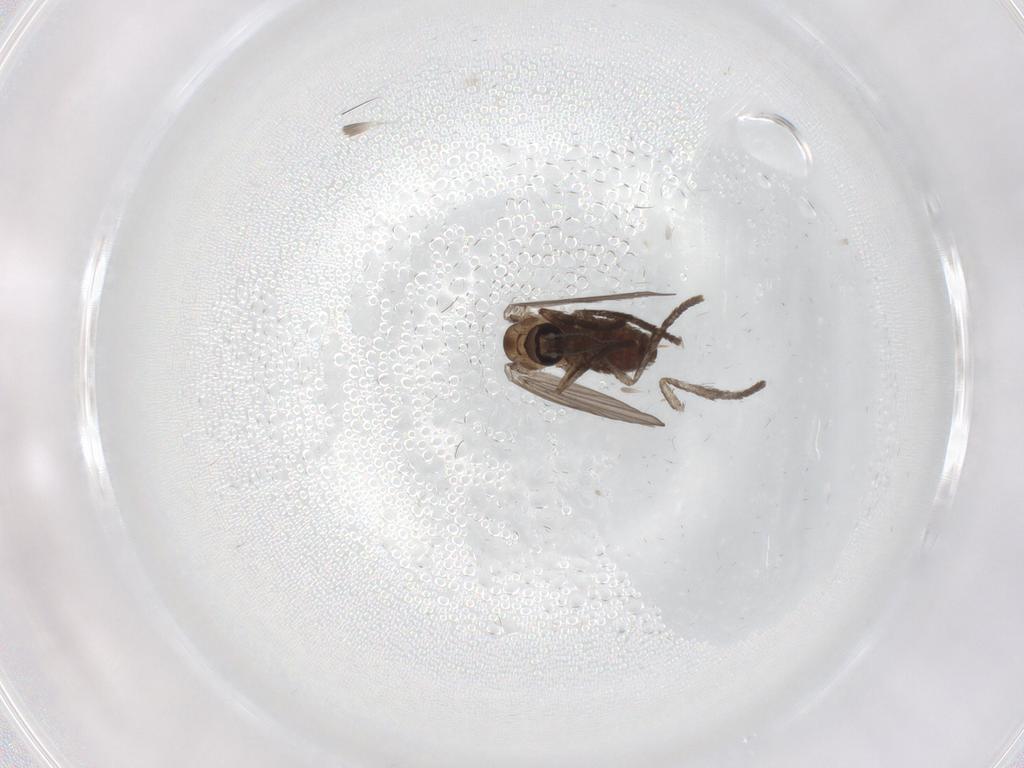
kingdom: Animalia
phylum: Arthropoda
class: Insecta
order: Diptera
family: Psychodidae
